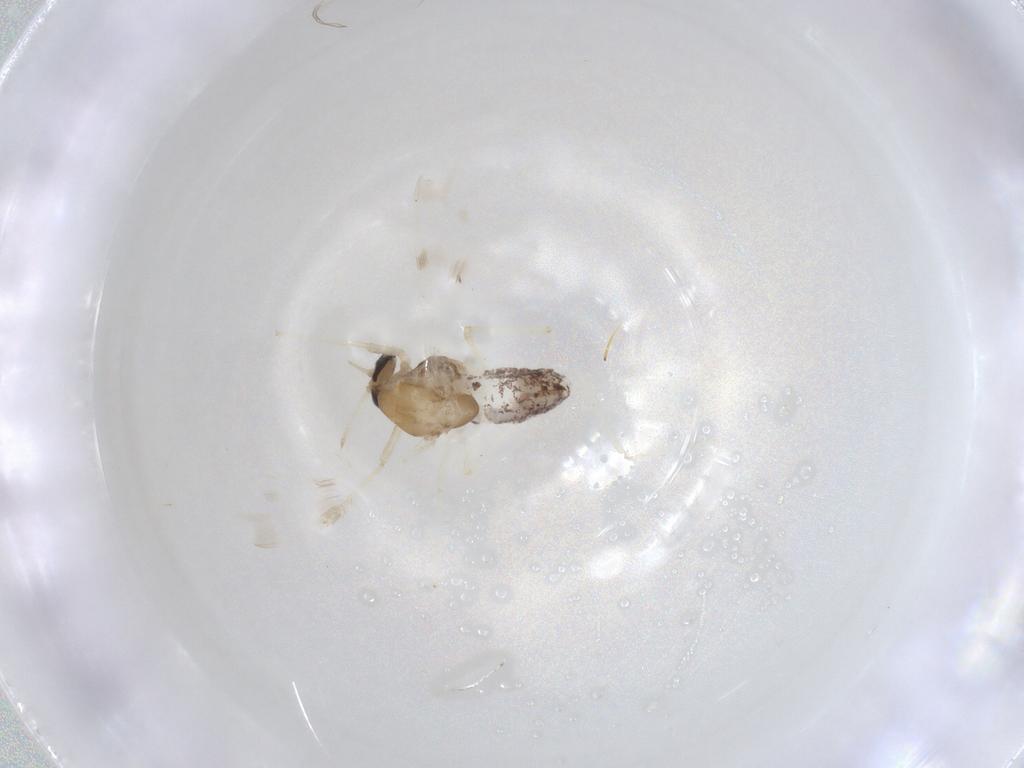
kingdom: Animalia
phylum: Arthropoda
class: Insecta
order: Diptera
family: Chironomidae
